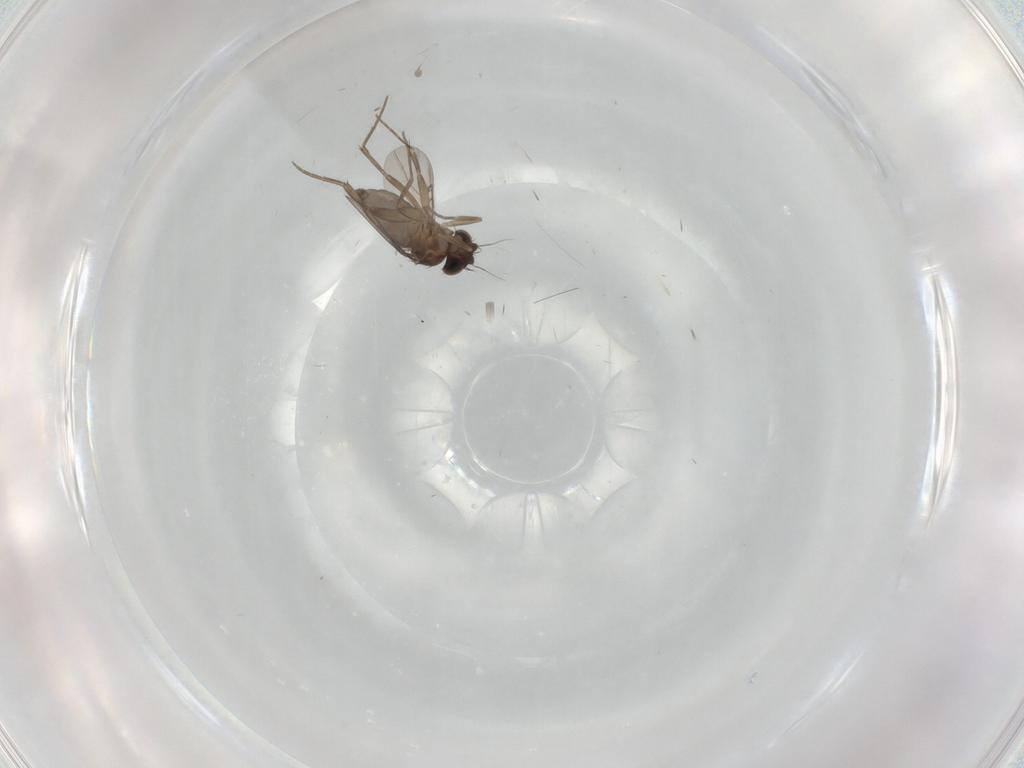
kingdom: Animalia
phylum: Arthropoda
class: Insecta
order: Diptera
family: Phoridae
